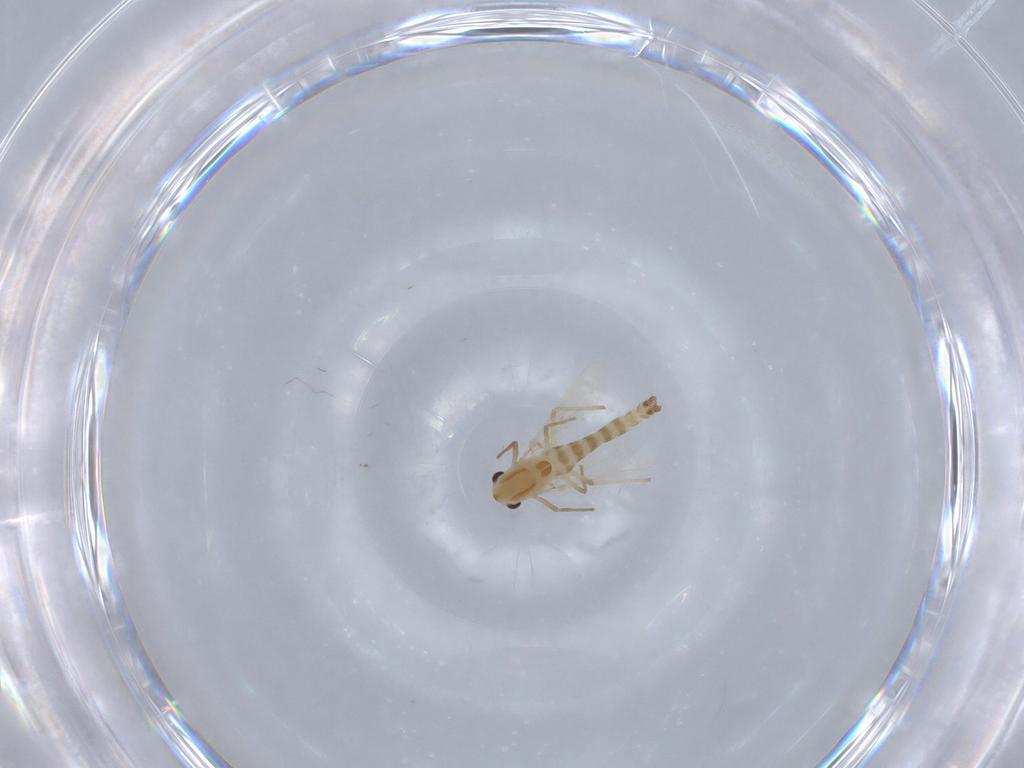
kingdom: Animalia
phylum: Arthropoda
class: Insecta
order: Diptera
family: Chironomidae
